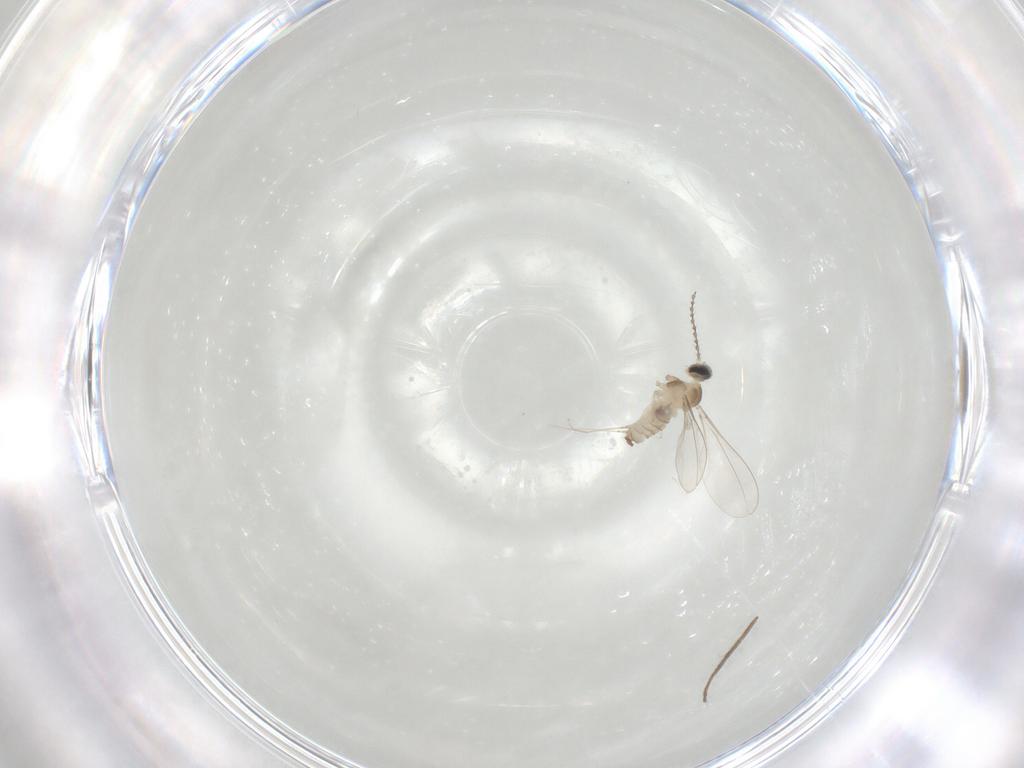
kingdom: Animalia
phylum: Arthropoda
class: Insecta
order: Diptera
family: Cecidomyiidae
